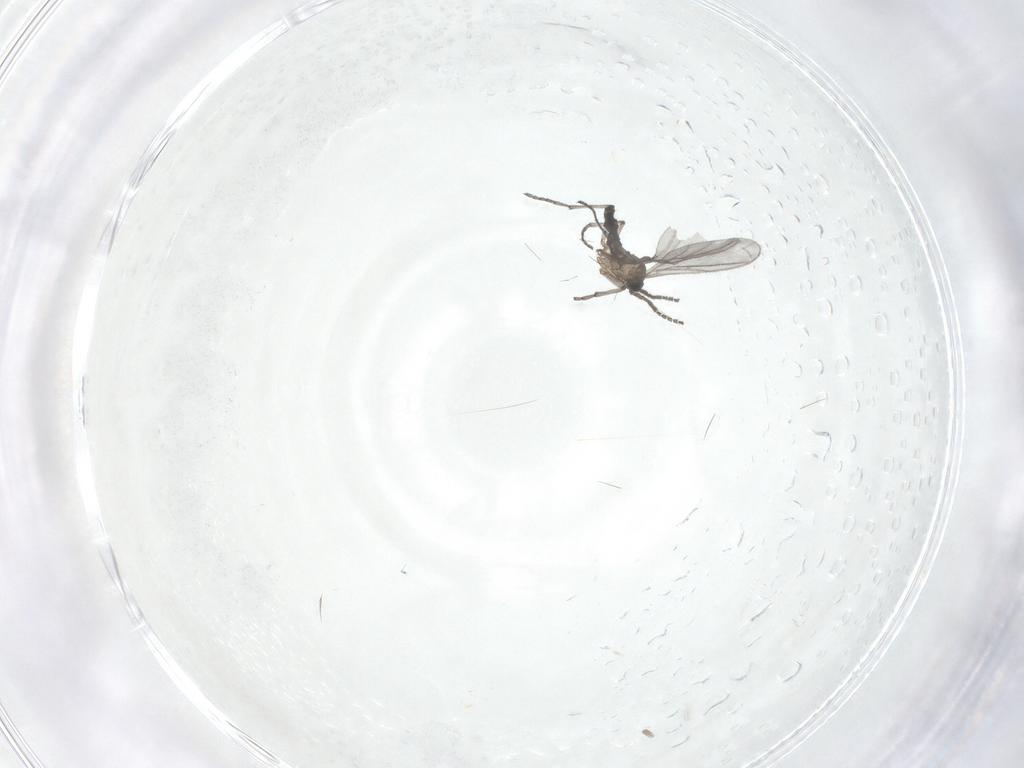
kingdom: Animalia
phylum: Arthropoda
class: Insecta
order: Diptera
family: Limoniidae
